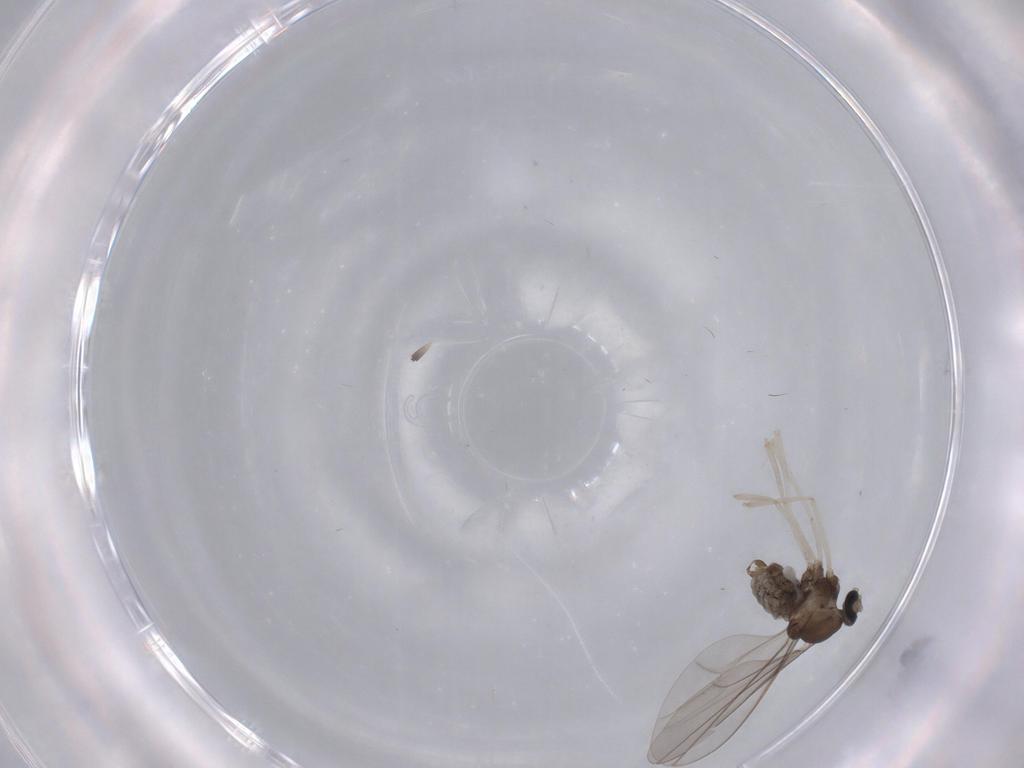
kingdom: Animalia
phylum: Arthropoda
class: Insecta
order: Diptera
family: Cecidomyiidae
